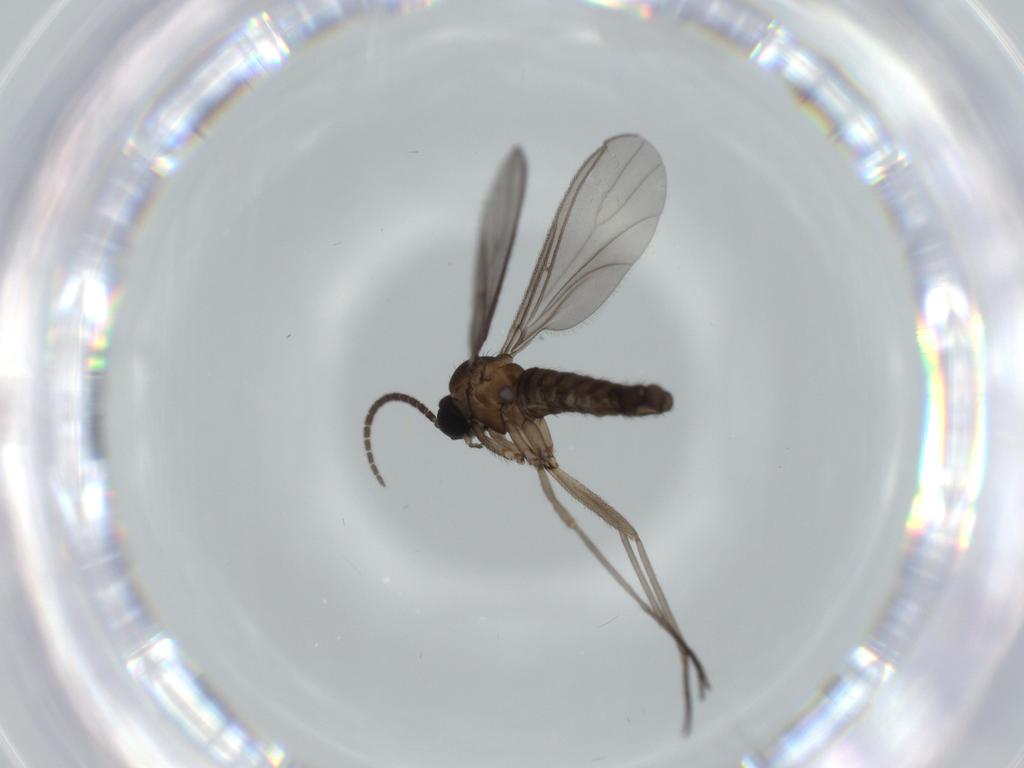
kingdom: Animalia
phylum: Arthropoda
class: Insecta
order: Diptera
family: Sciaridae
